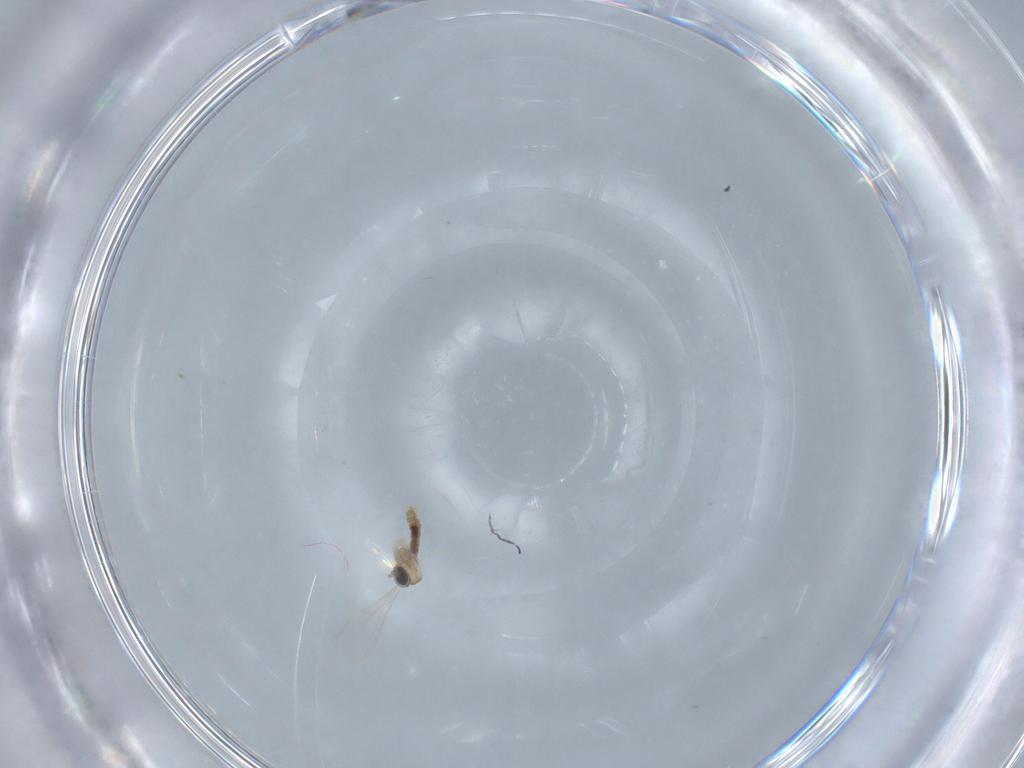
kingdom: Animalia
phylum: Arthropoda
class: Insecta
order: Diptera
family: Cecidomyiidae
